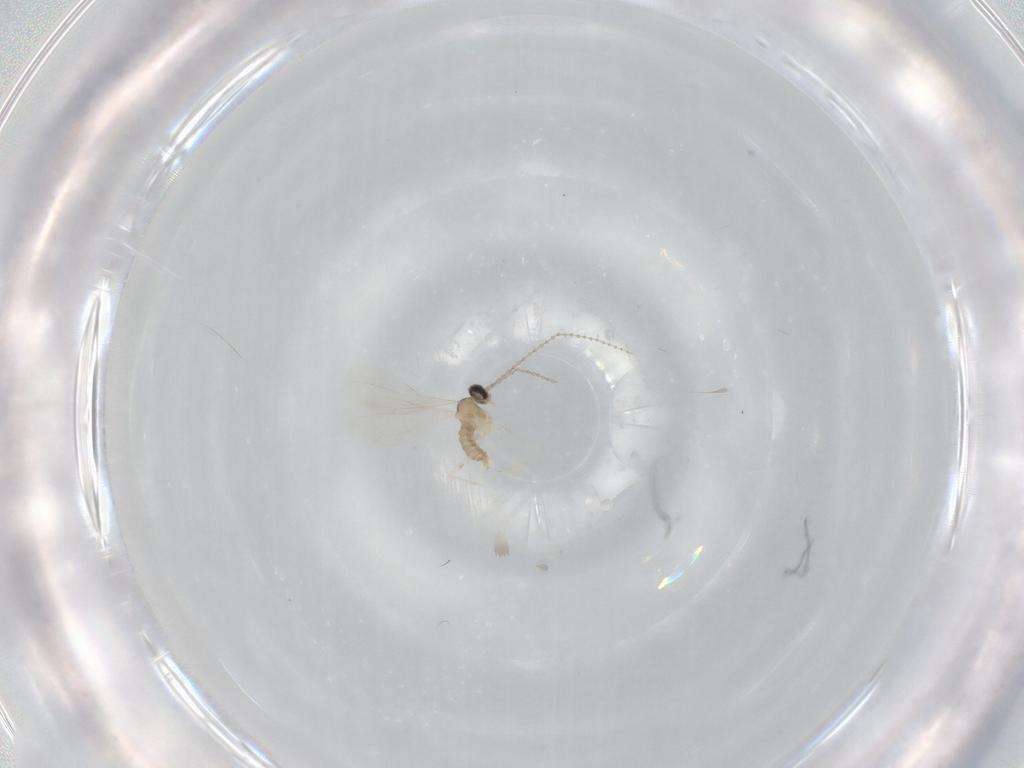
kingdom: Animalia
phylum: Arthropoda
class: Insecta
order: Diptera
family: Cecidomyiidae
